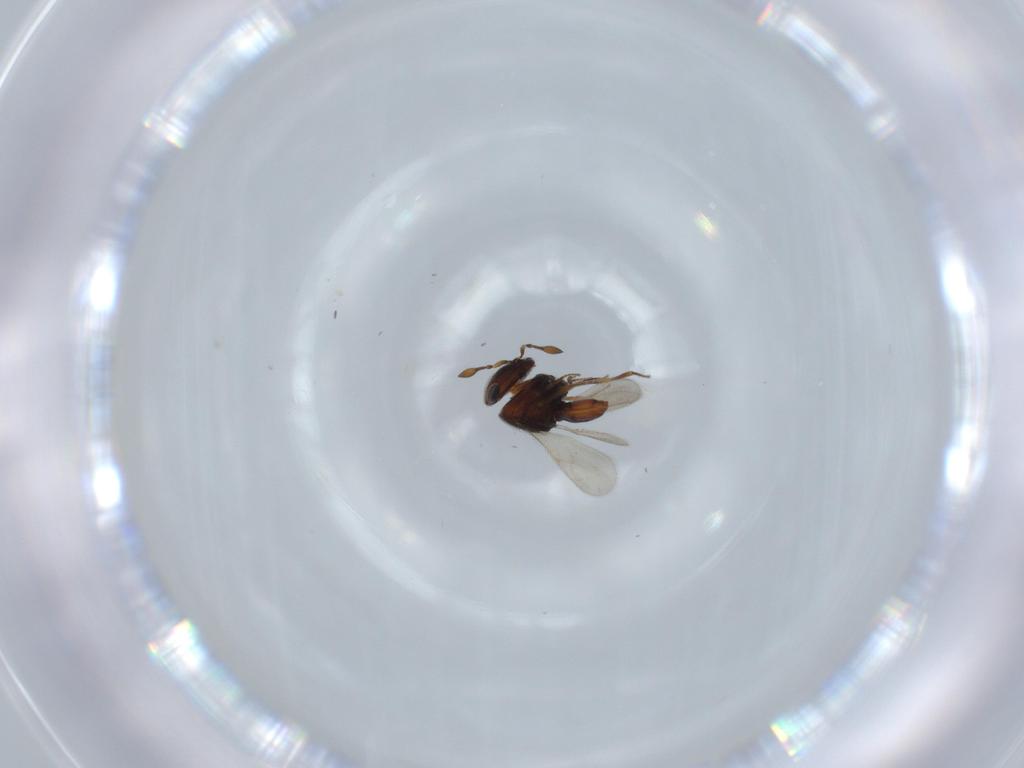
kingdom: Animalia
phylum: Arthropoda
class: Insecta
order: Hymenoptera
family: Scelionidae
